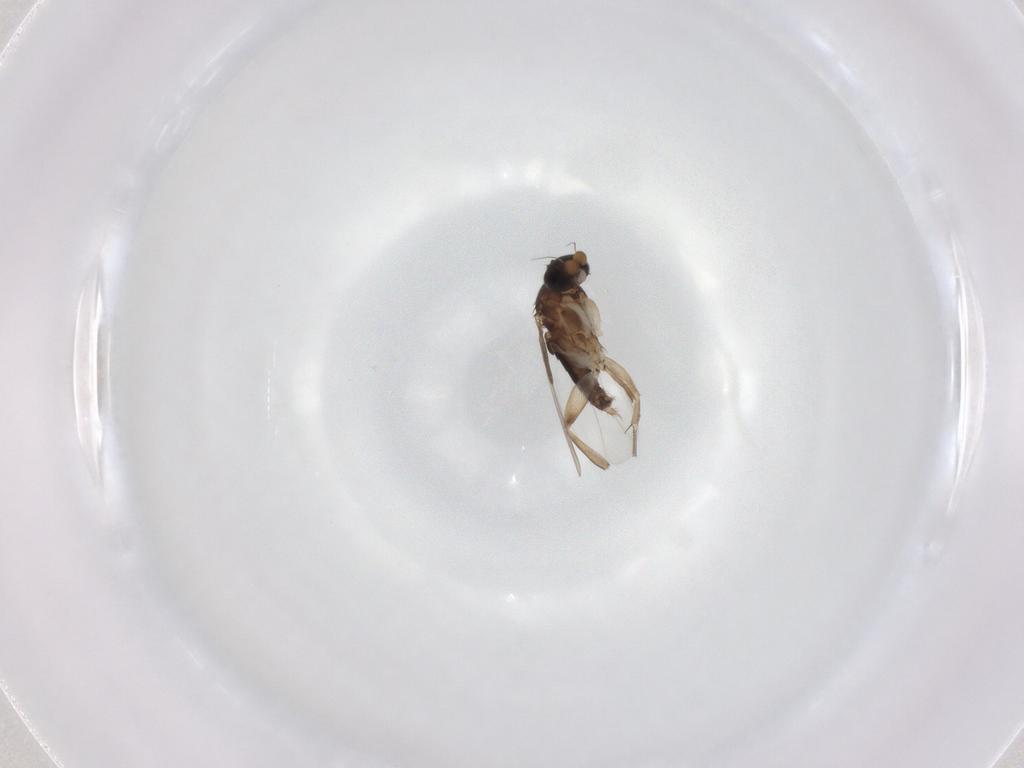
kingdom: Animalia
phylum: Arthropoda
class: Insecta
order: Diptera
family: Phoridae
